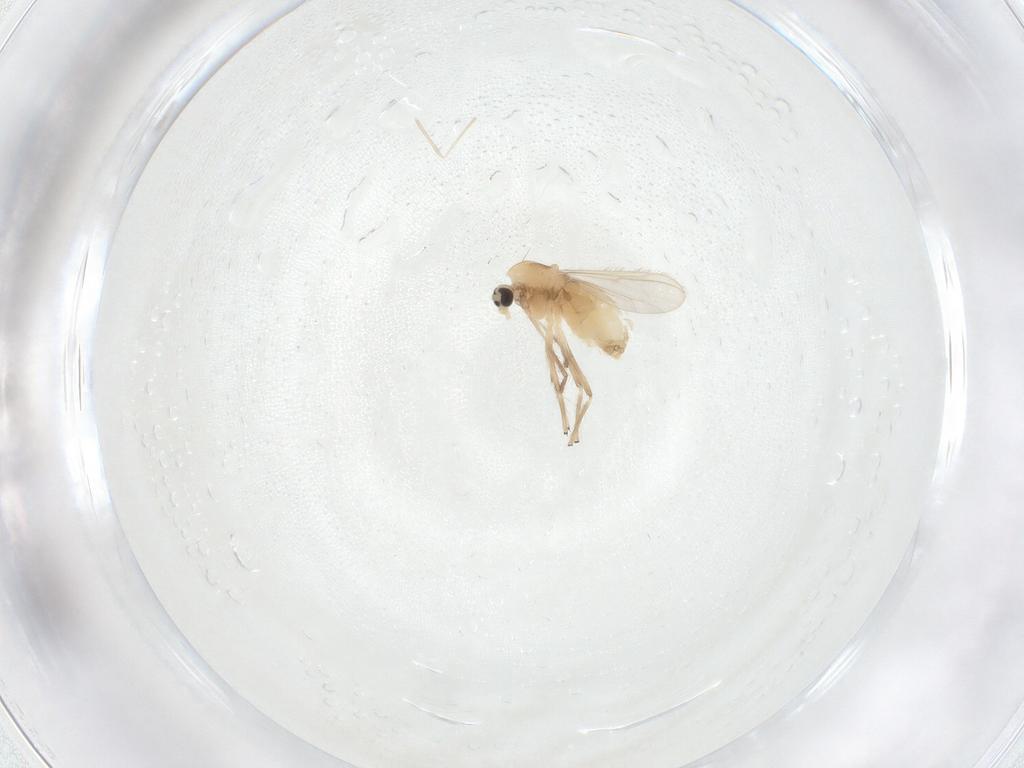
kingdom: Animalia
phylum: Arthropoda
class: Insecta
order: Diptera
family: Chironomidae
